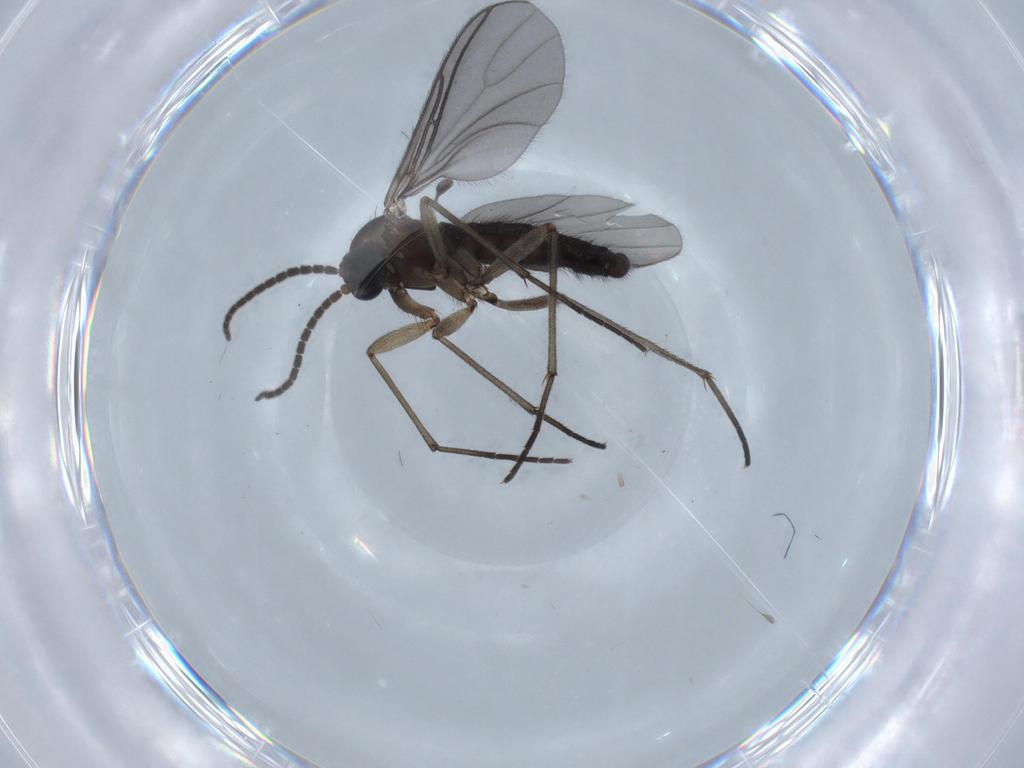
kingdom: Animalia
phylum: Arthropoda
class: Insecta
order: Diptera
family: Sciaridae
